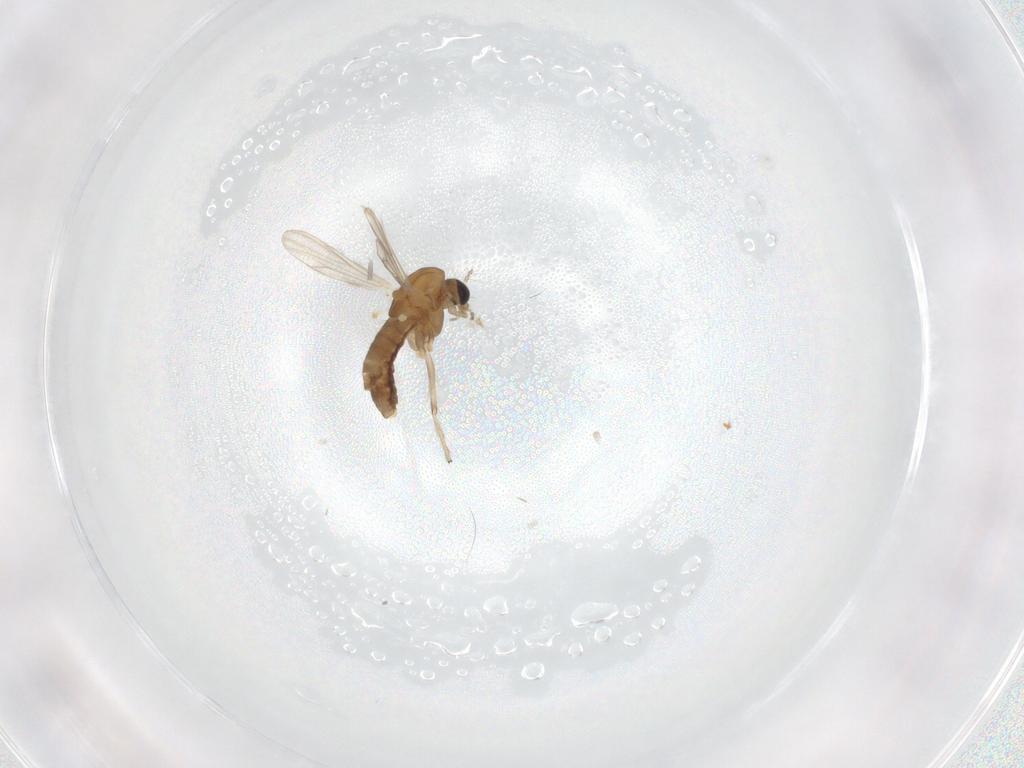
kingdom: Animalia
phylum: Arthropoda
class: Insecta
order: Diptera
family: Chironomidae
